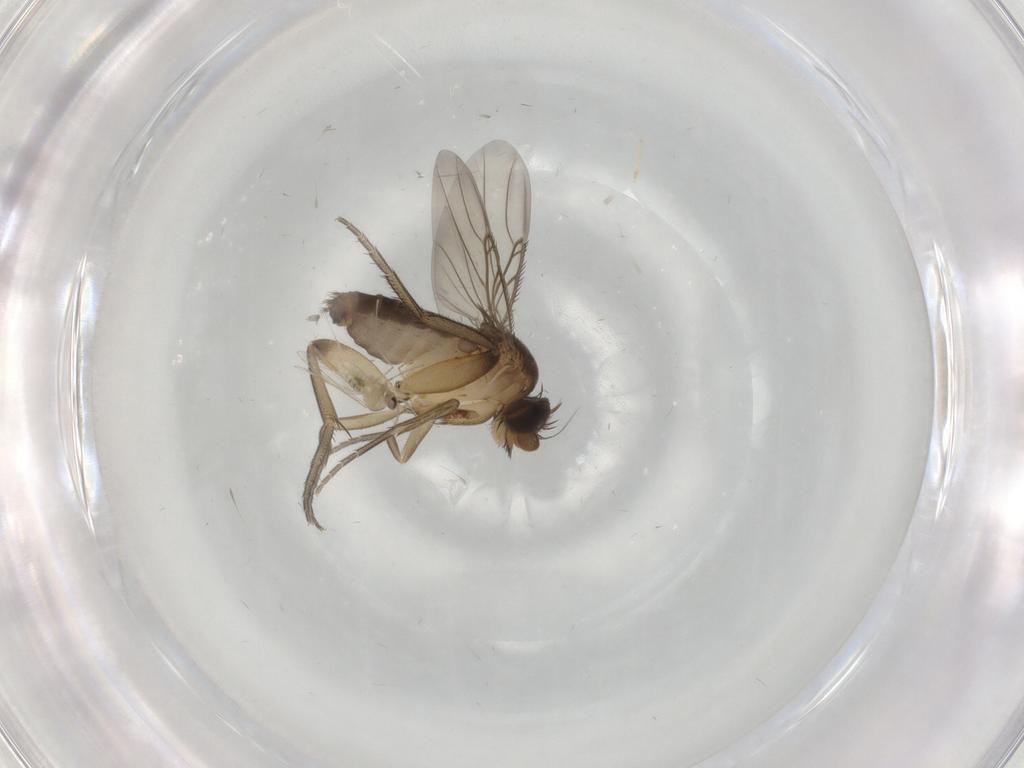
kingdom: Animalia
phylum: Arthropoda
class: Insecta
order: Diptera
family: Cecidomyiidae
